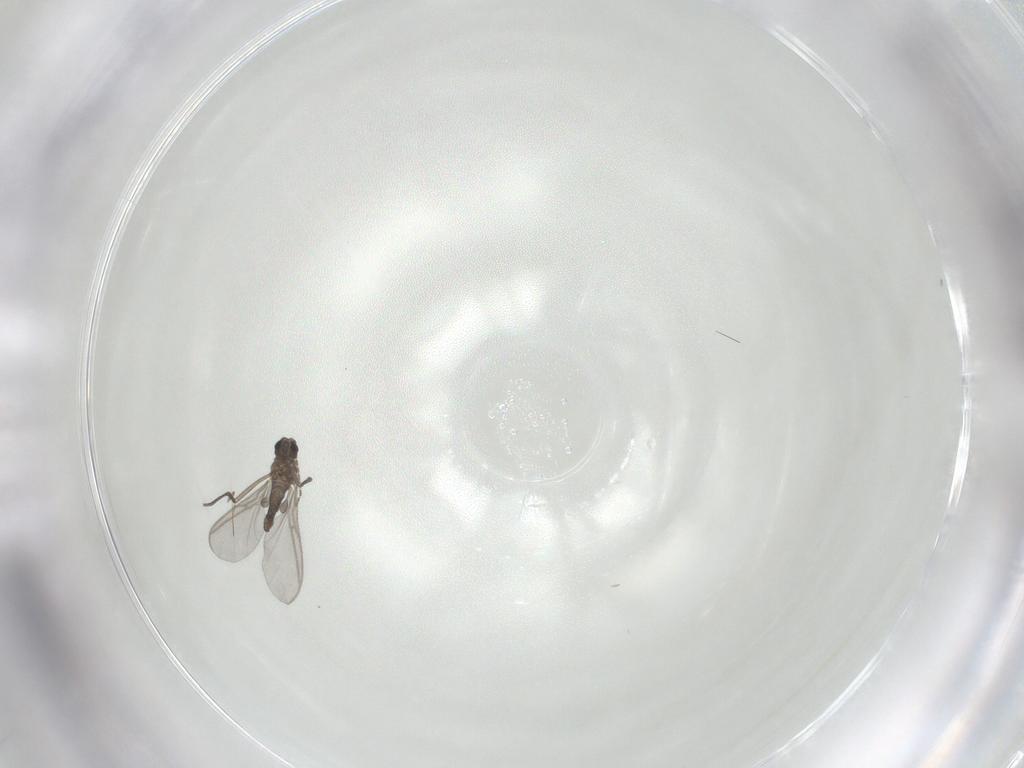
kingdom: Animalia
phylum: Arthropoda
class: Insecta
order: Diptera
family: Sciaridae
